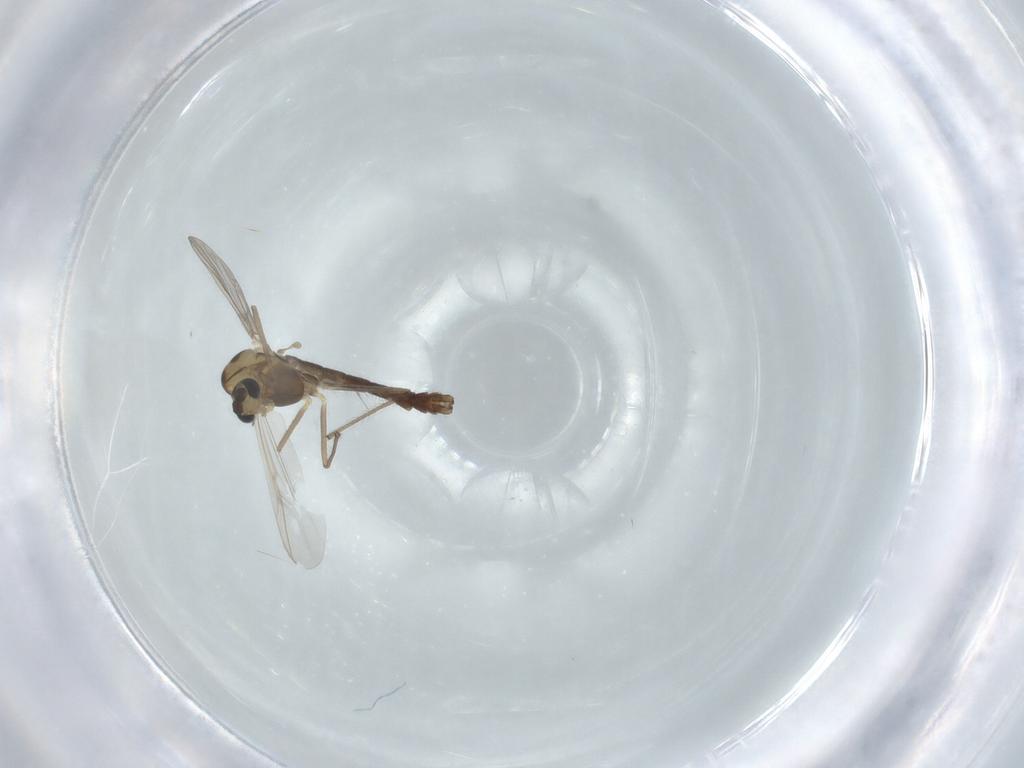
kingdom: Animalia
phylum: Arthropoda
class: Insecta
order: Diptera
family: Chironomidae
